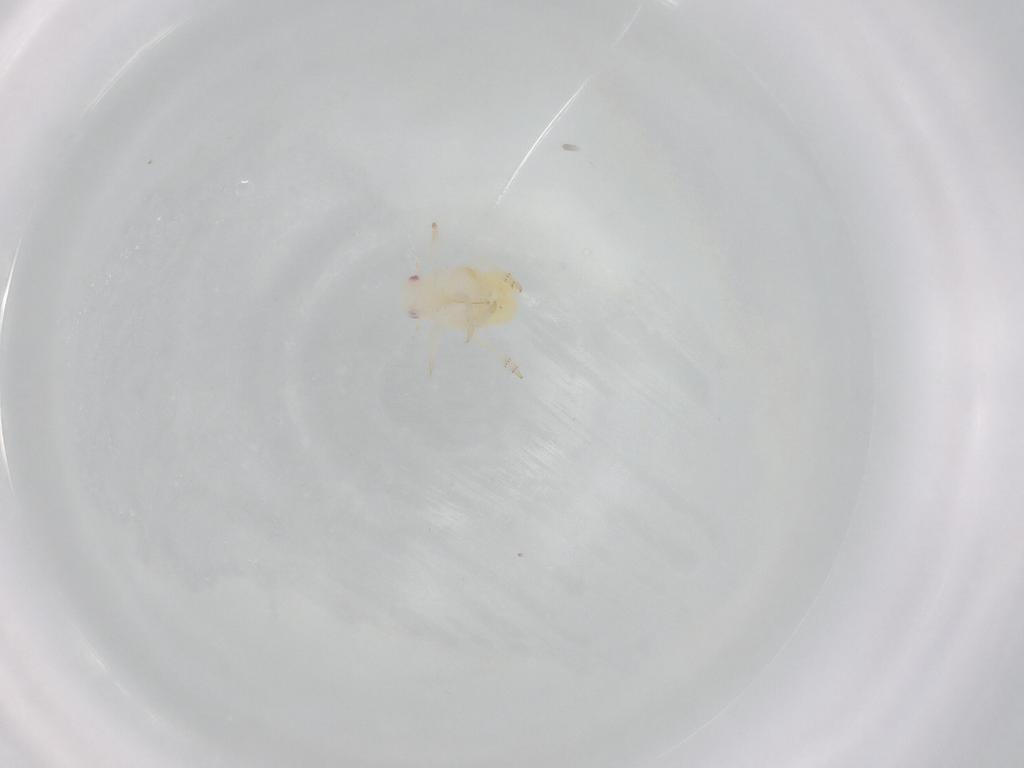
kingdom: Animalia
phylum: Arthropoda
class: Insecta
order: Hemiptera
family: Flatidae
